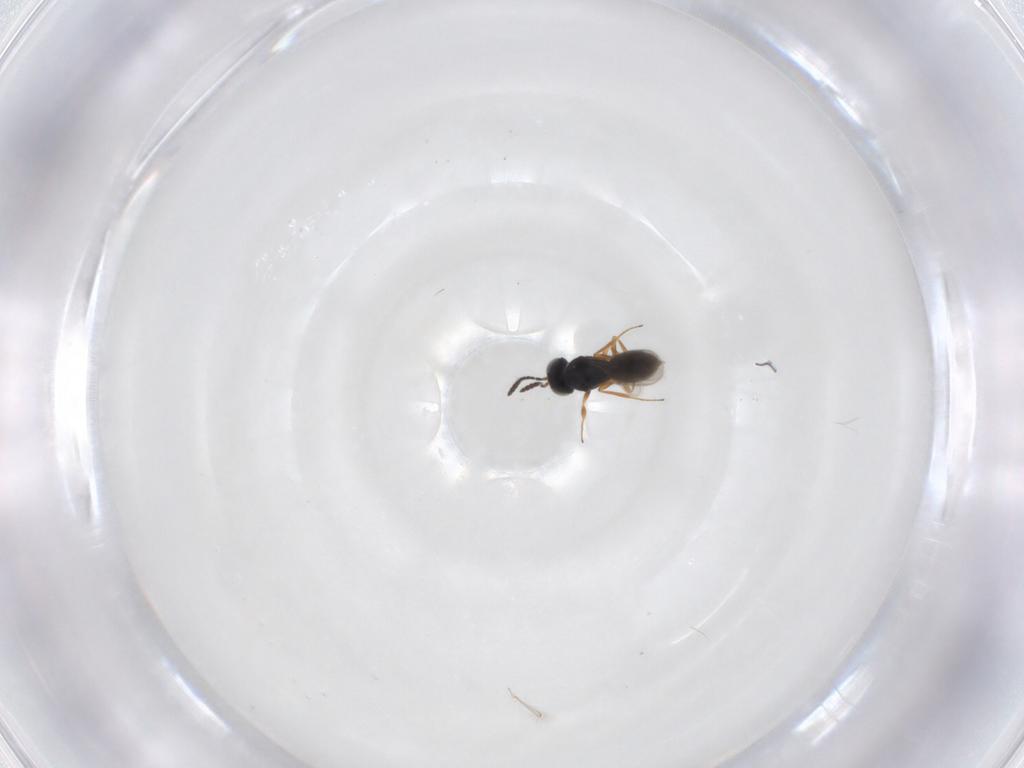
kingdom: Animalia
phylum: Arthropoda
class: Insecta
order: Hymenoptera
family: Scelionidae
